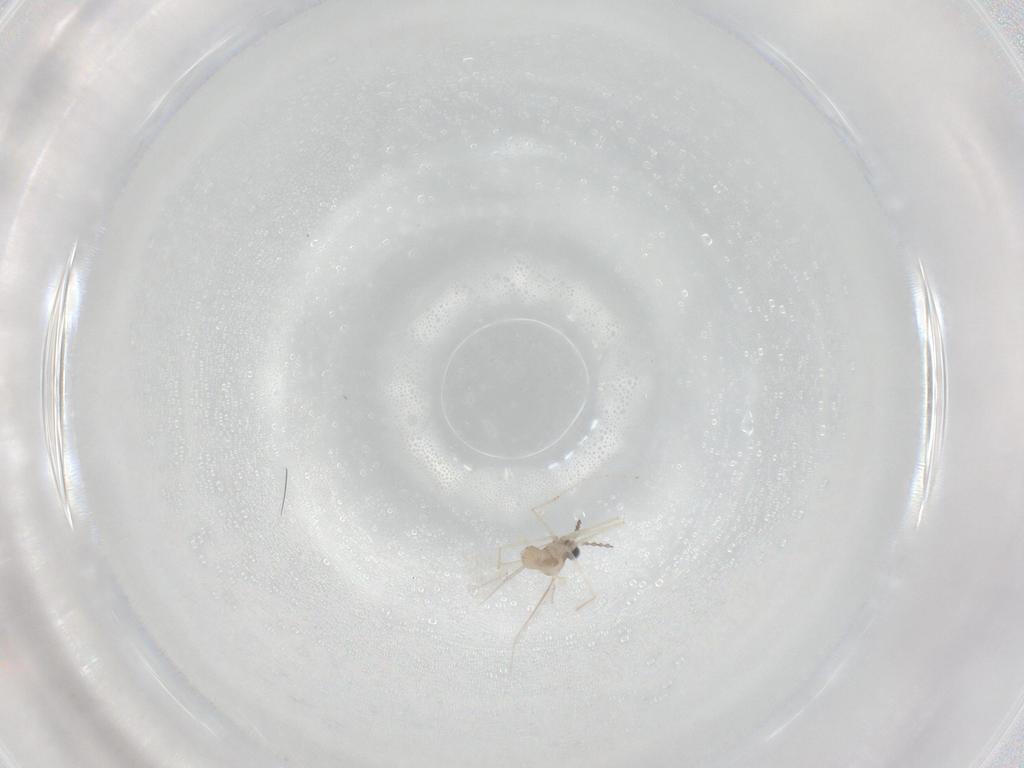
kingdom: Animalia
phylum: Arthropoda
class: Insecta
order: Diptera
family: Cecidomyiidae
